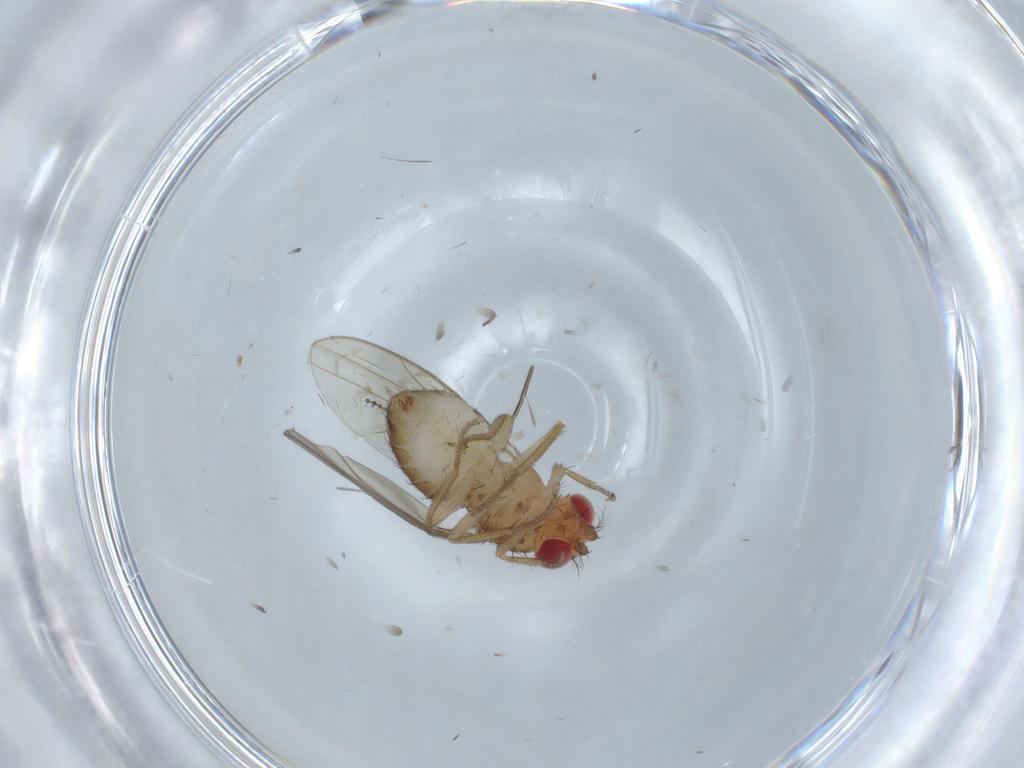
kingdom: Animalia
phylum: Arthropoda
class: Insecta
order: Diptera
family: Drosophilidae
